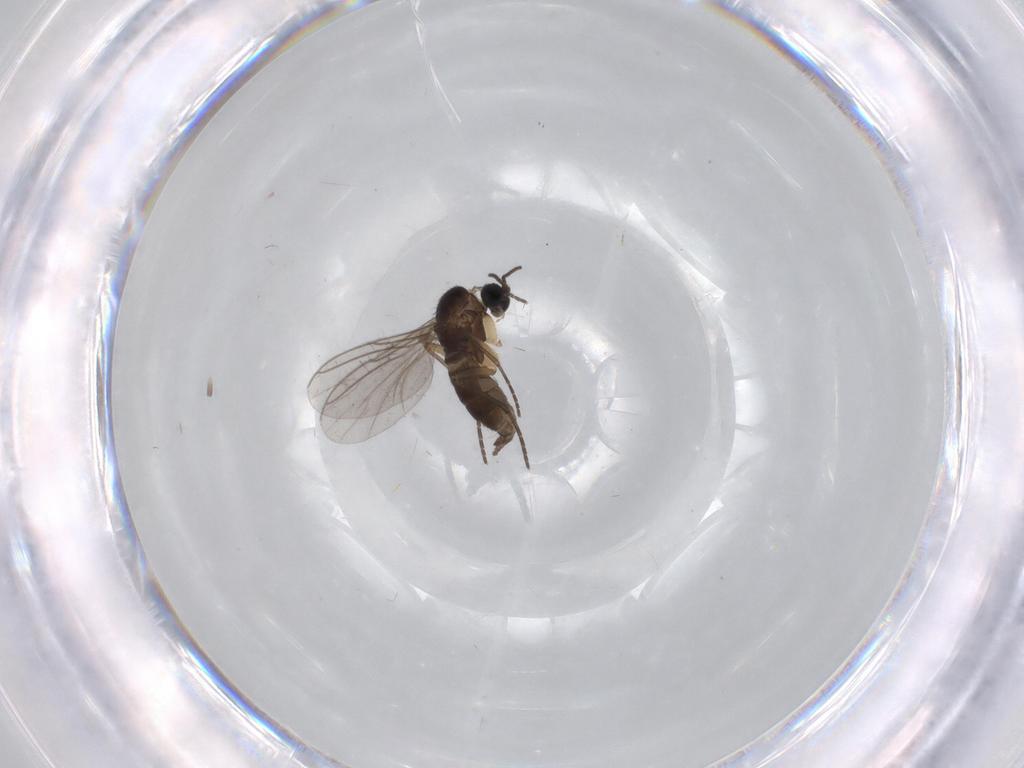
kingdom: Animalia
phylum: Arthropoda
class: Insecta
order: Diptera
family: Sciaridae
